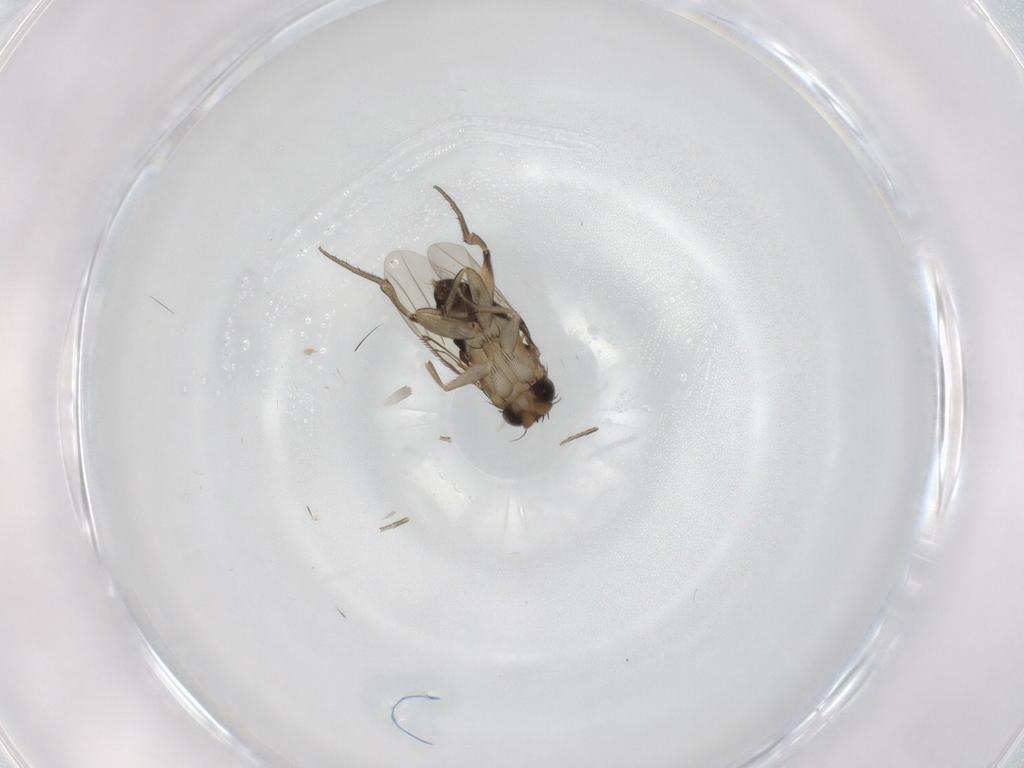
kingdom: Animalia
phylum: Arthropoda
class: Insecta
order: Diptera
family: Phoridae
